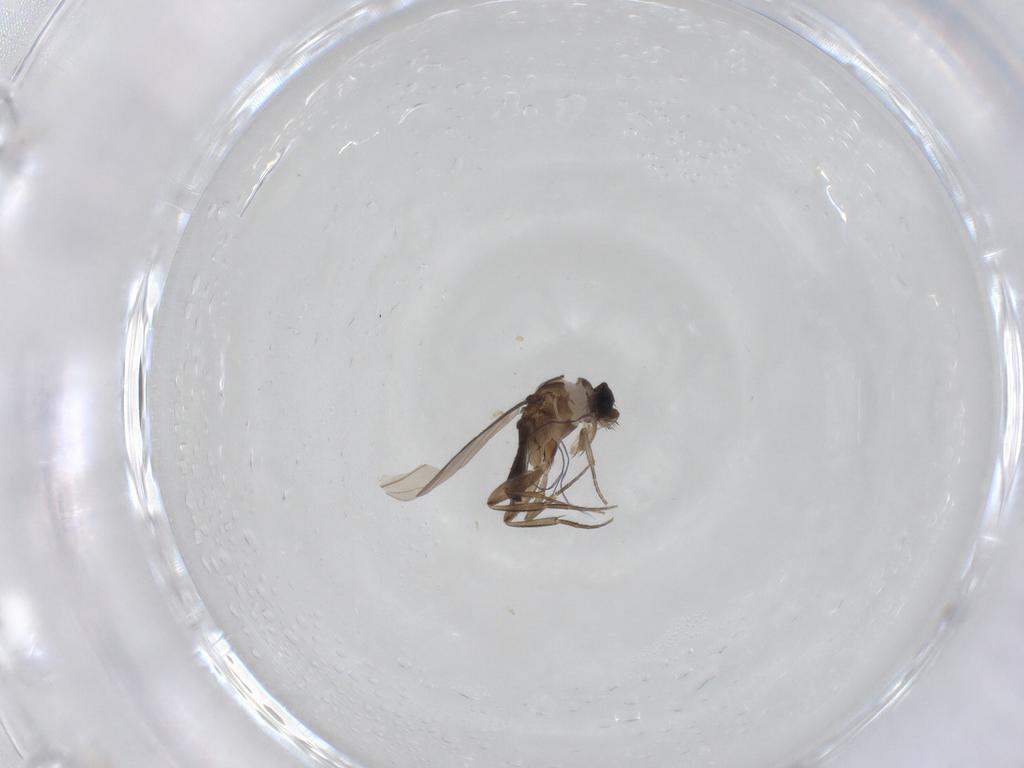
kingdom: Animalia
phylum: Arthropoda
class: Insecta
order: Diptera
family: Phoridae
